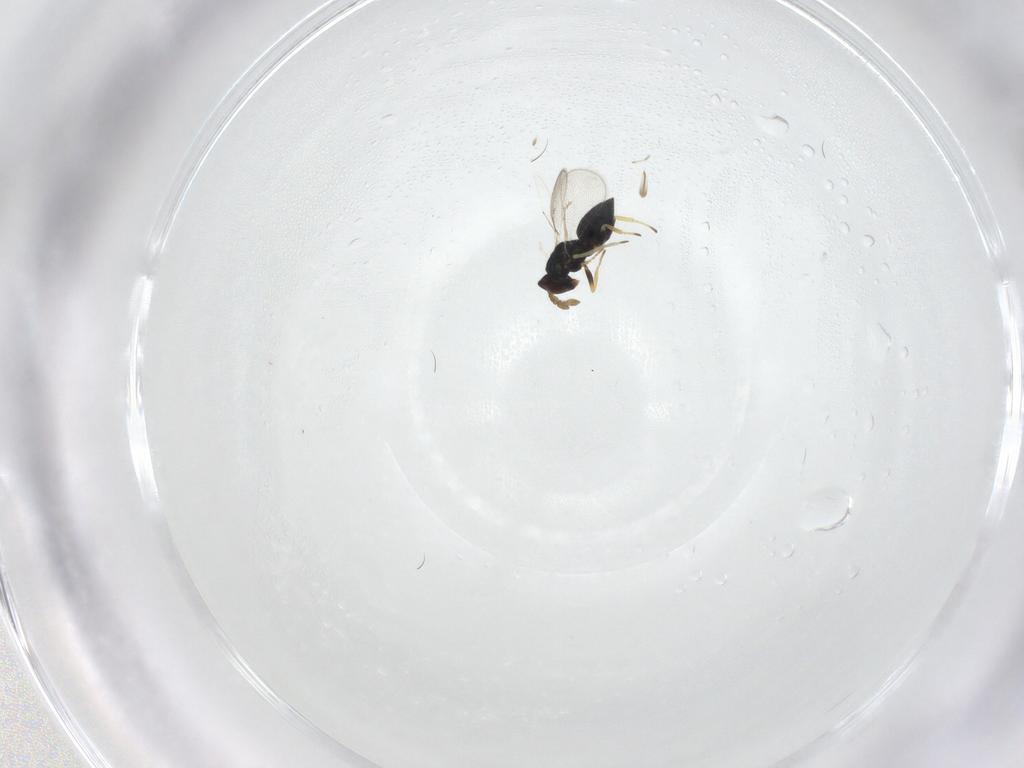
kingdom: Animalia
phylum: Arthropoda
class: Insecta
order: Hymenoptera
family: Eulophidae
